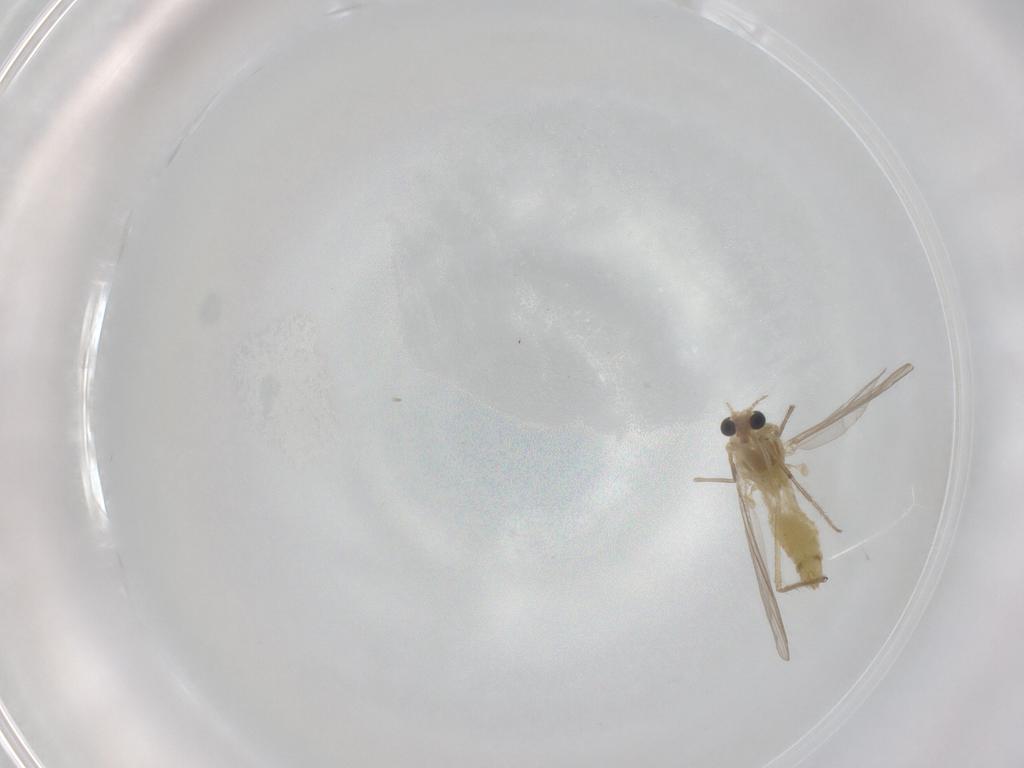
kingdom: Animalia
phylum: Arthropoda
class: Insecta
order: Diptera
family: Chironomidae
